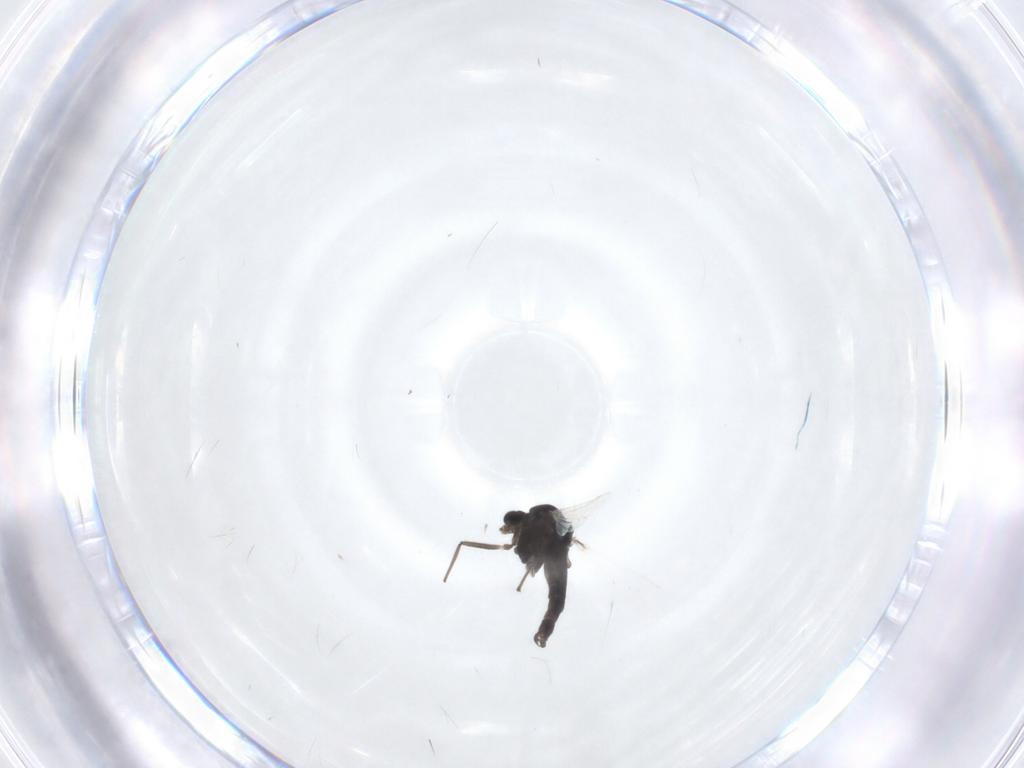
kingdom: Animalia
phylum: Arthropoda
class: Insecta
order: Diptera
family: Chironomidae
